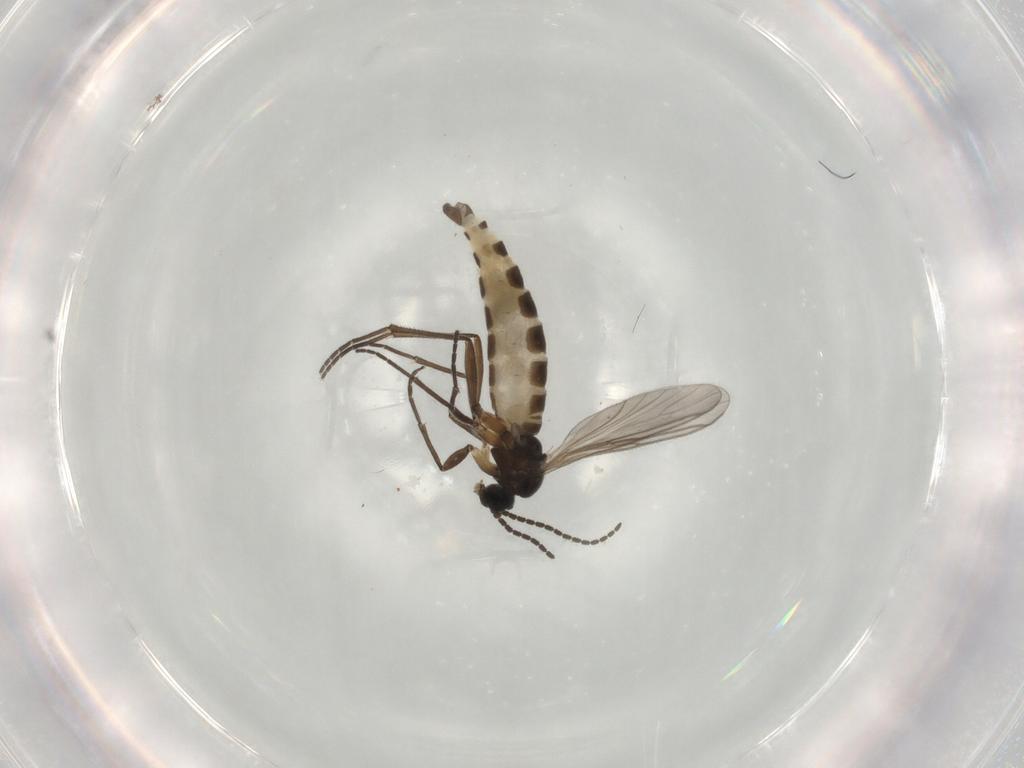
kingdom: Animalia
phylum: Arthropoda
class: Insecta
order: Diptera
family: Sciaridae
